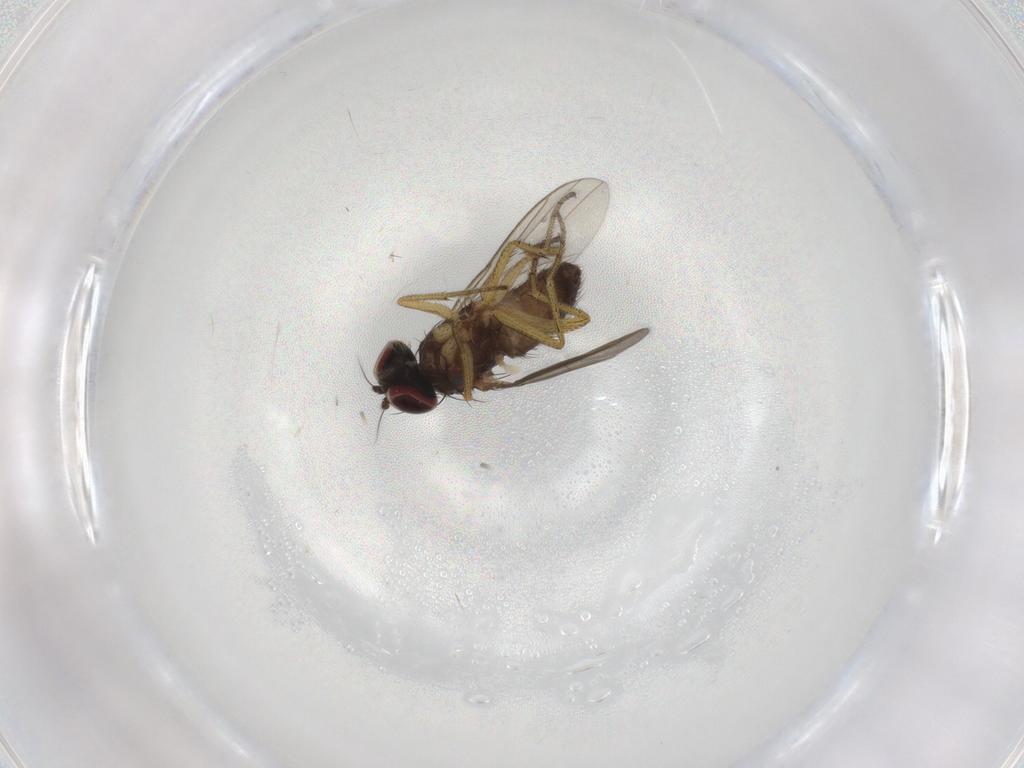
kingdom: Animalia
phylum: Arthropoda
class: Insecta
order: Diptera
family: Dolichopodidae
